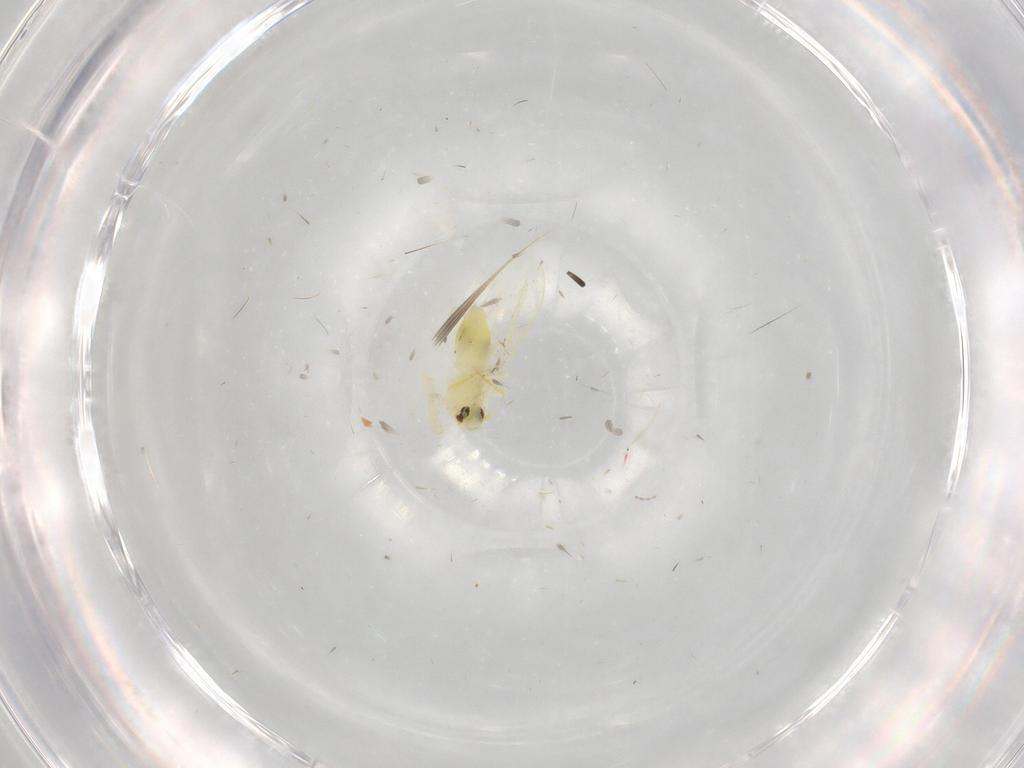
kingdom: Animalia
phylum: Arthropoda
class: Insecta
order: Hemiptera
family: Aleyrodidae
